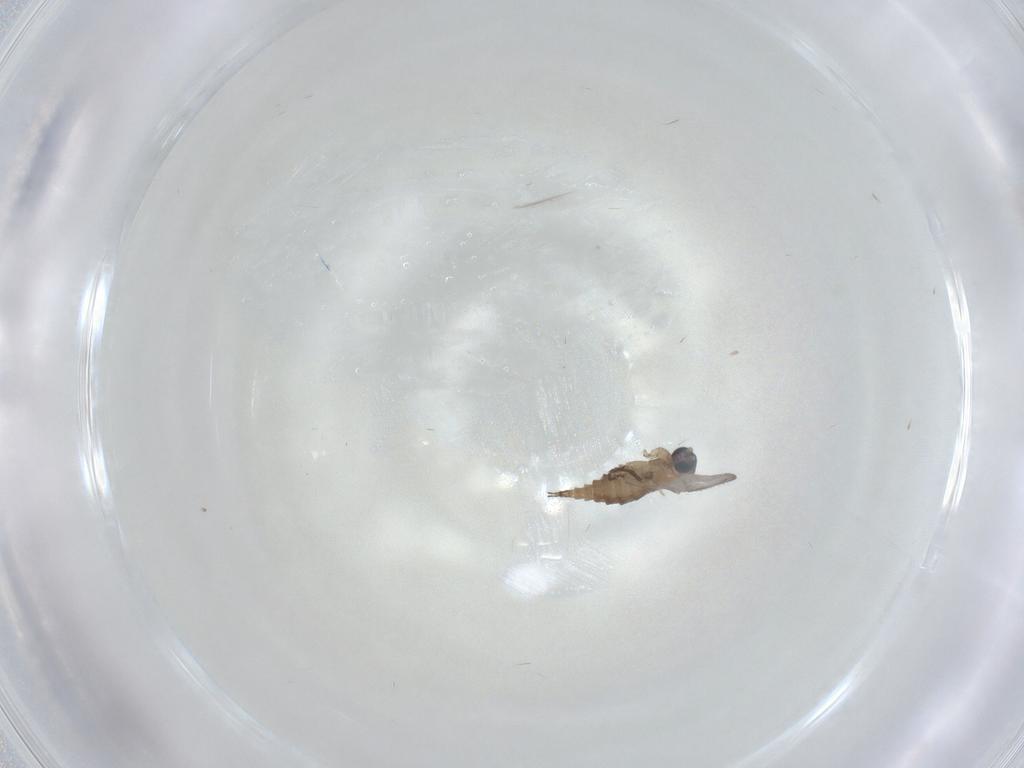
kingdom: Animalia
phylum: Arthropoda
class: Insecta
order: Diptera
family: Sciaridae
